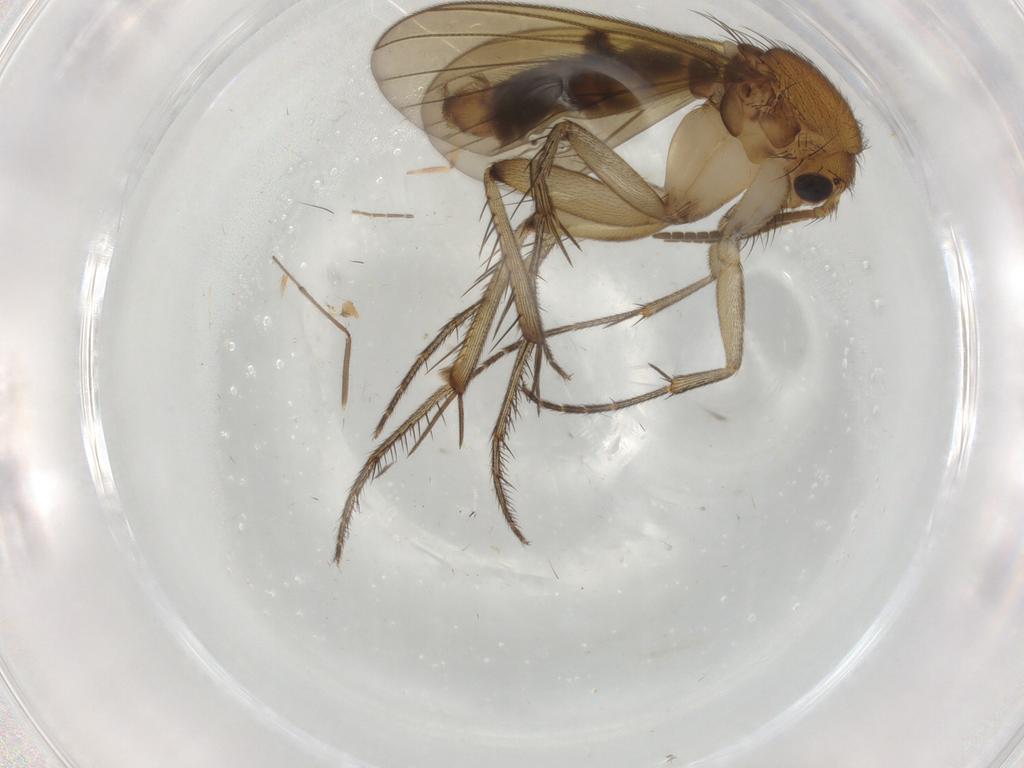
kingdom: Animalia
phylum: Arthropoda
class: Insecta
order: Diptera
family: Cecidomyiidae
